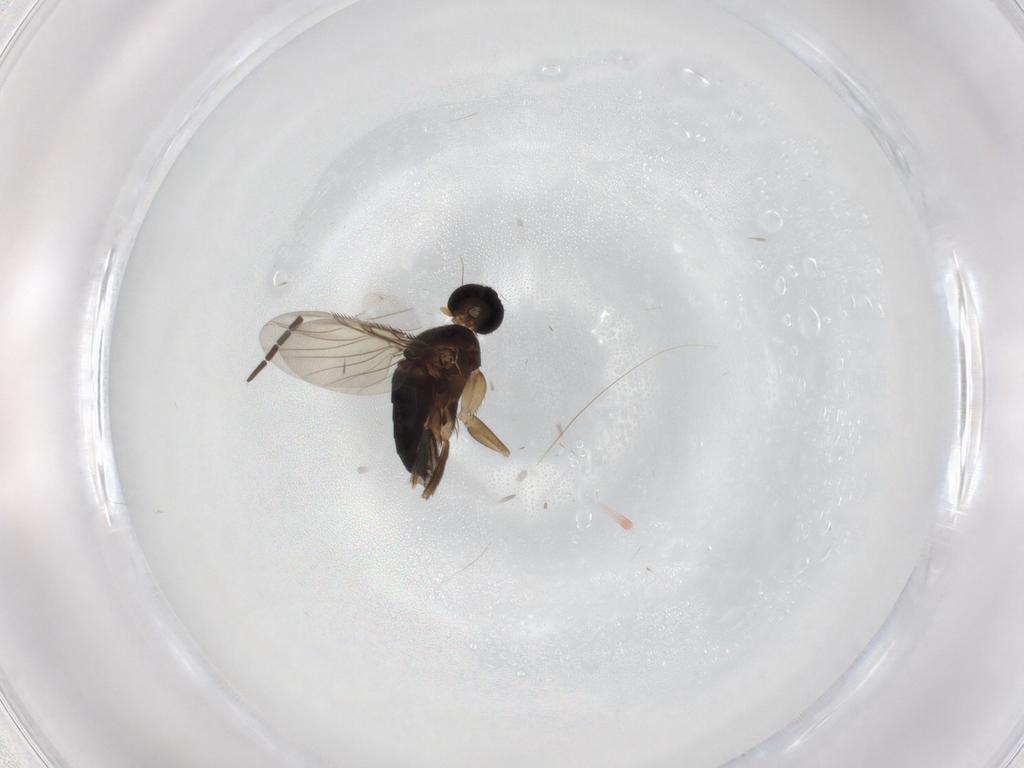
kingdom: Animalia
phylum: Arthropoda
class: Insecta
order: Diptera
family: Phoridae
